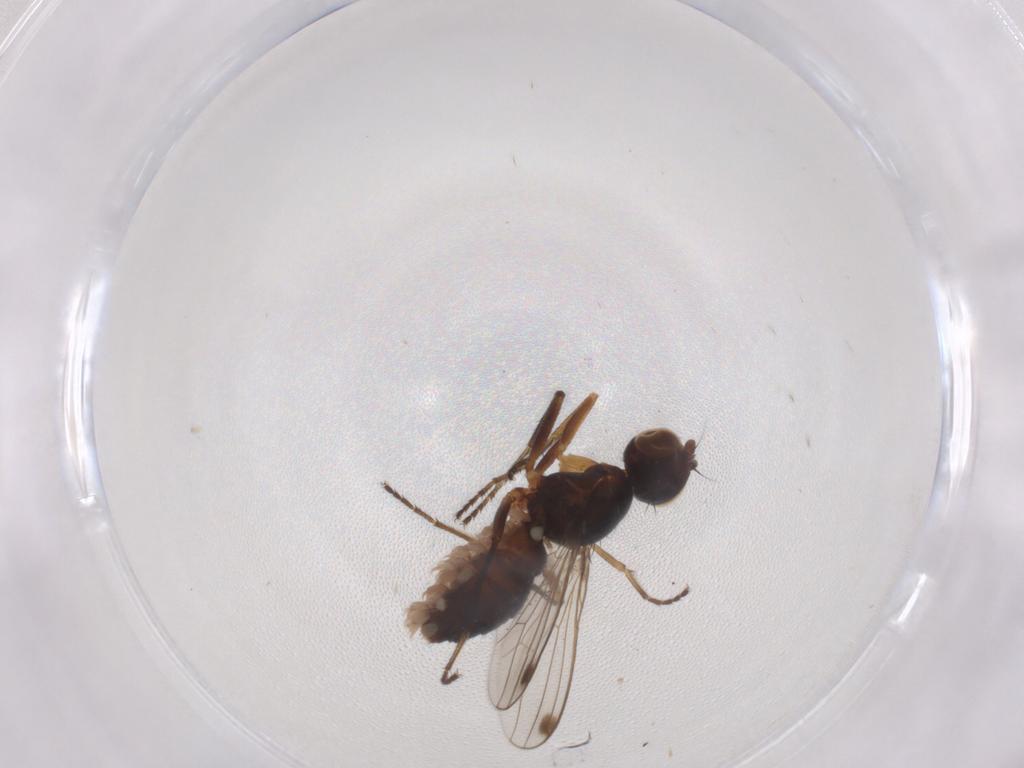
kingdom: Animalia
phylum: Arthropoda
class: Insecta
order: Diptera
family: Sepsidae
